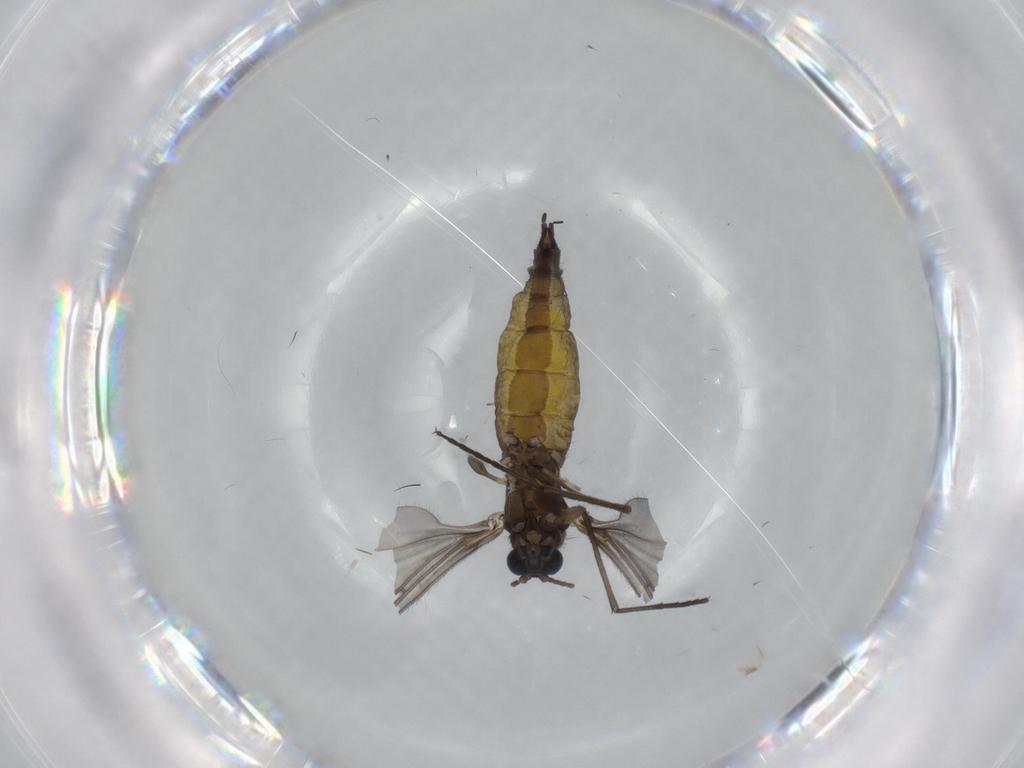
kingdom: Animalia
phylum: Arthropoda
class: Insecta
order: Diptera
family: Sciaridae
